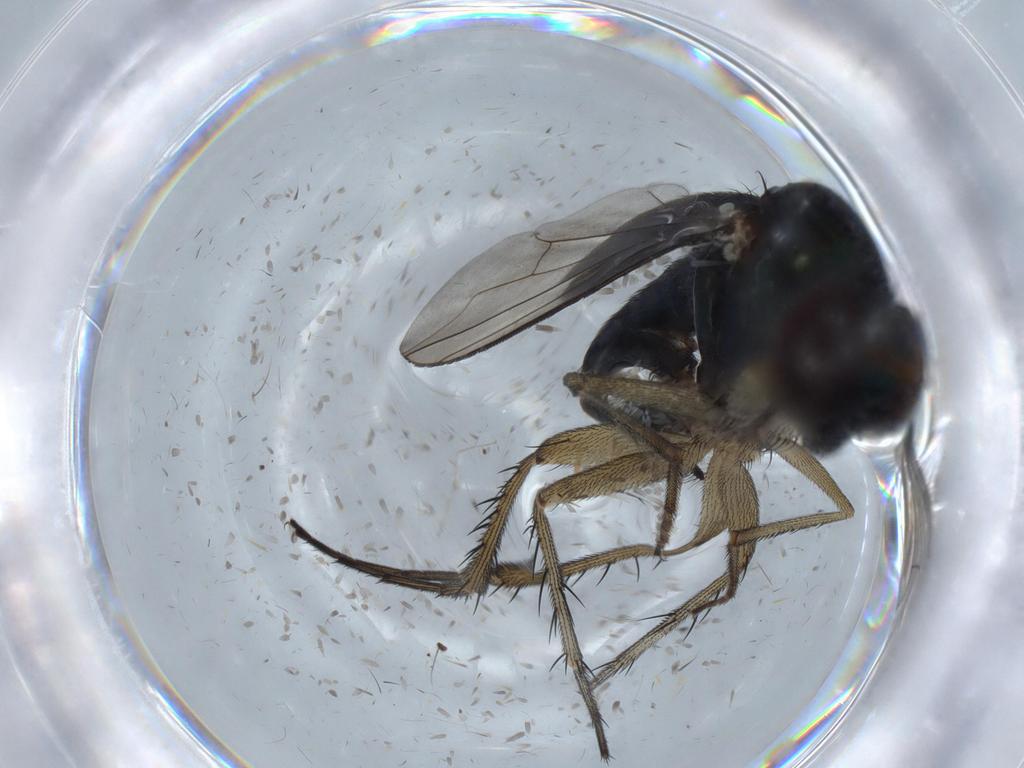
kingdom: Animalia
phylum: Arthropoda
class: Insecta
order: Diptera
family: Dolichopodidae
